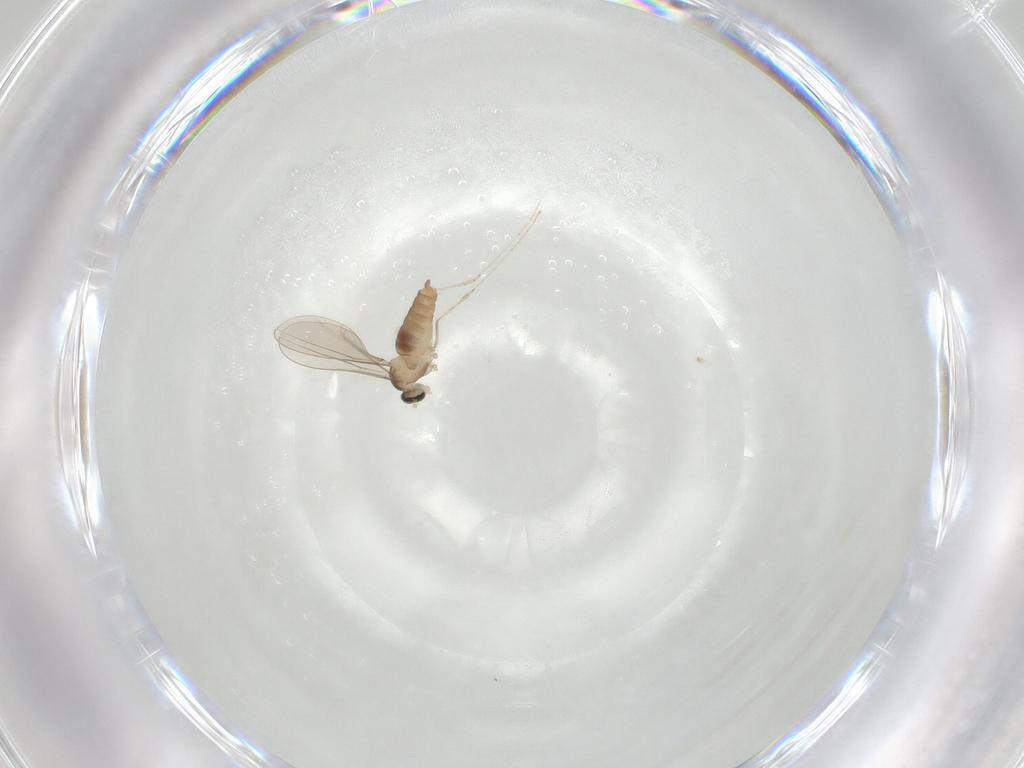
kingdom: Animalia
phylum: Arthropoda
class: Insecta
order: Diptera
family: Cecidomyiidae
